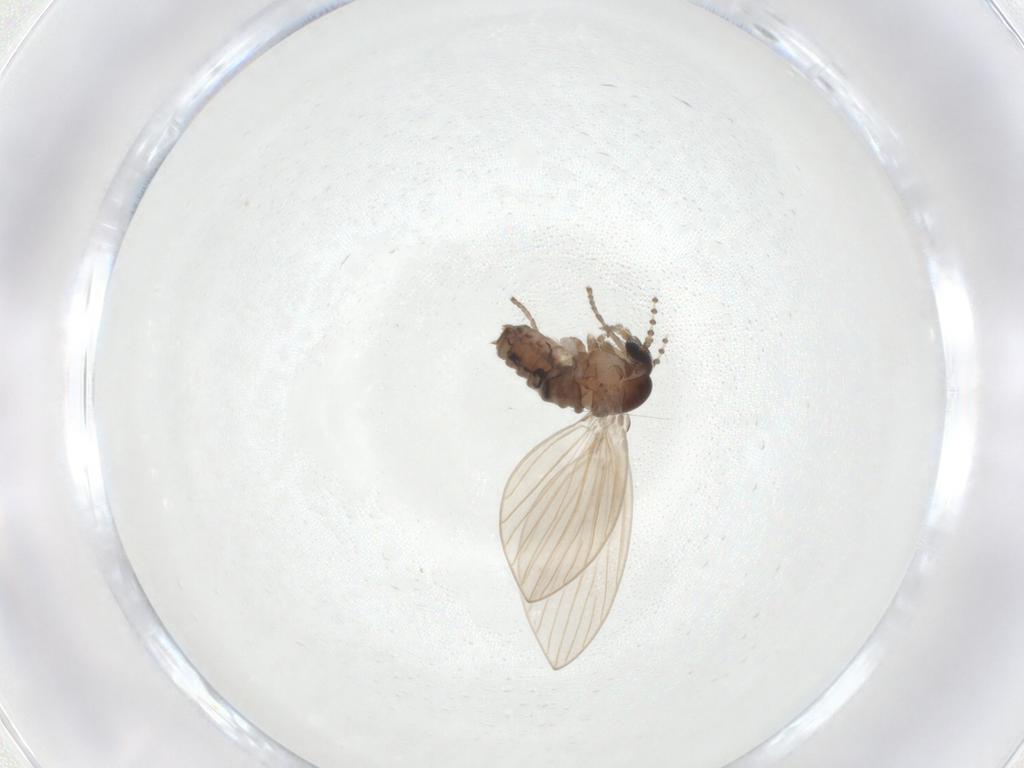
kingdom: Animalia
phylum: Arthropoda
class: Insecta
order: Diptera
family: Psychodidae
